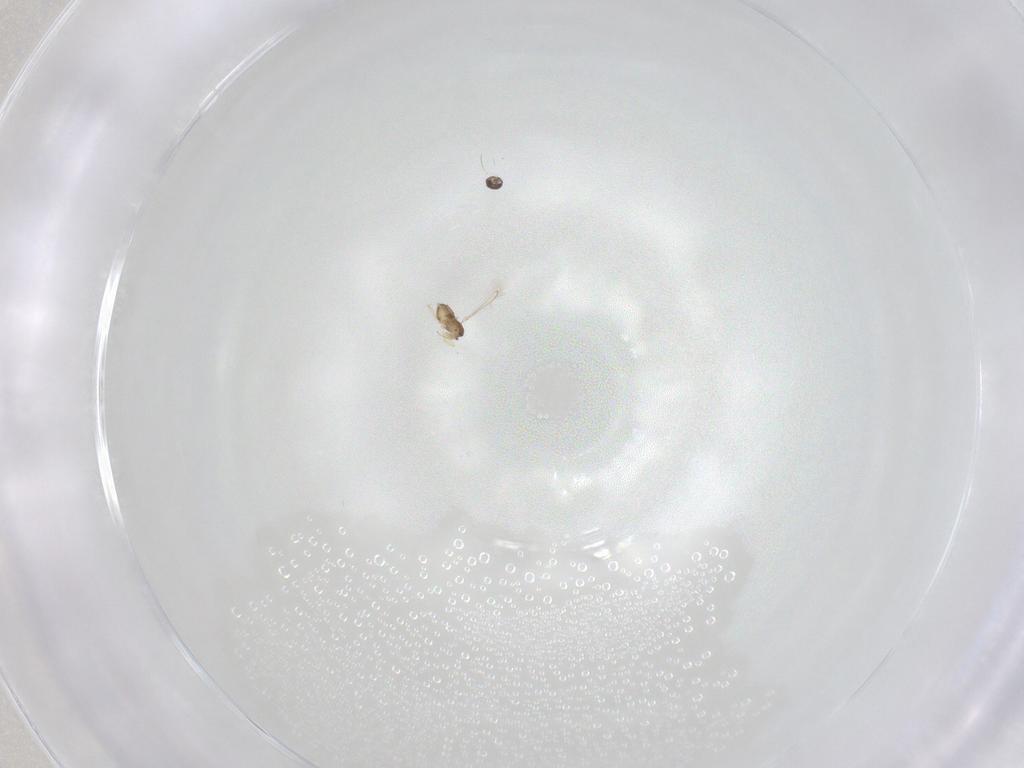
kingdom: Animalia
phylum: Arthropoda
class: Insecta
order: Hymenoptera
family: Mymaridae
